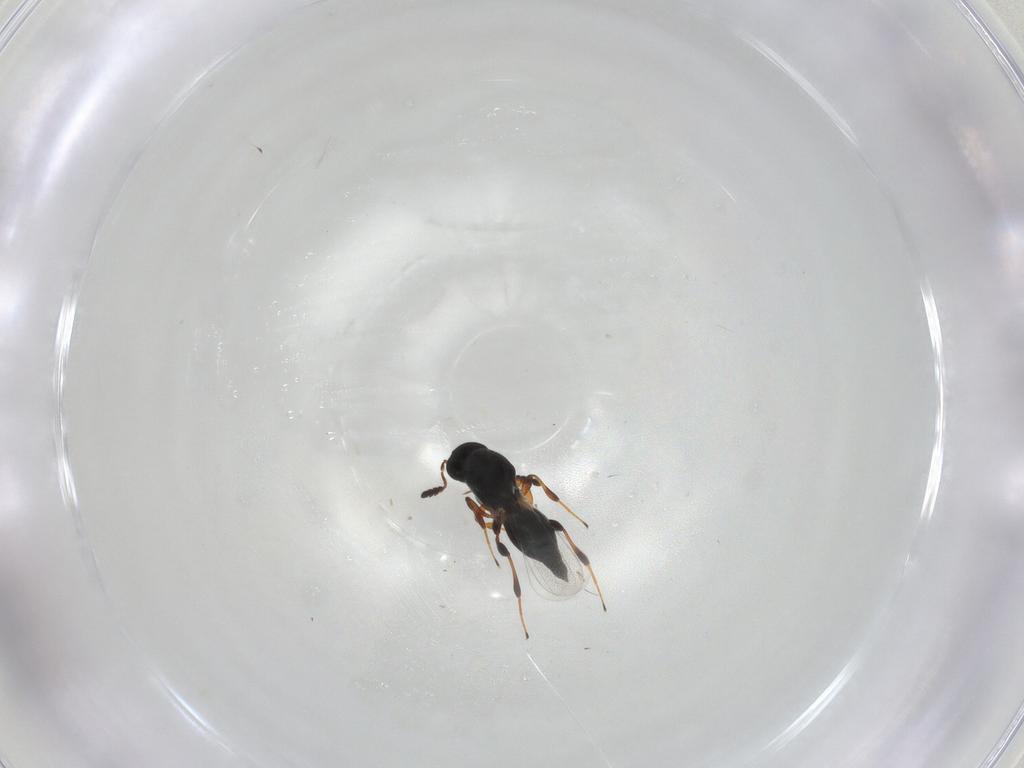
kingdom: Animalia
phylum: Arthropoda
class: Insecta
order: Hymenoptera
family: Platygastridae
